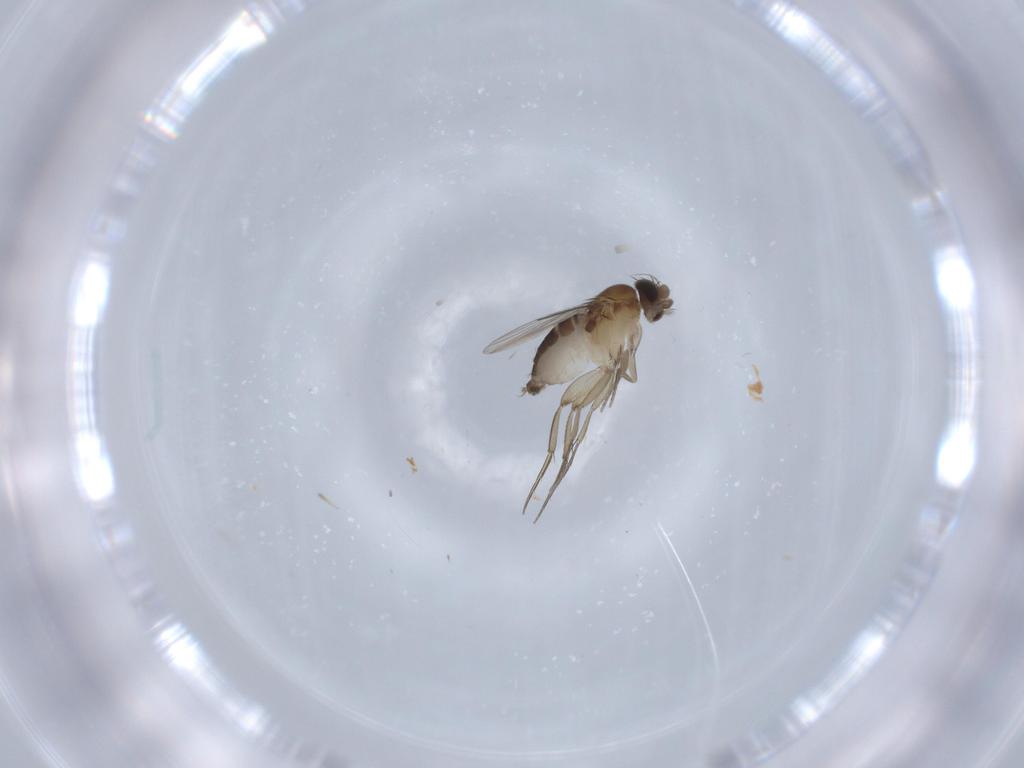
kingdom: Animalia
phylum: Arthropoda
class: Insecta
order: Diptera
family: Phoridae
